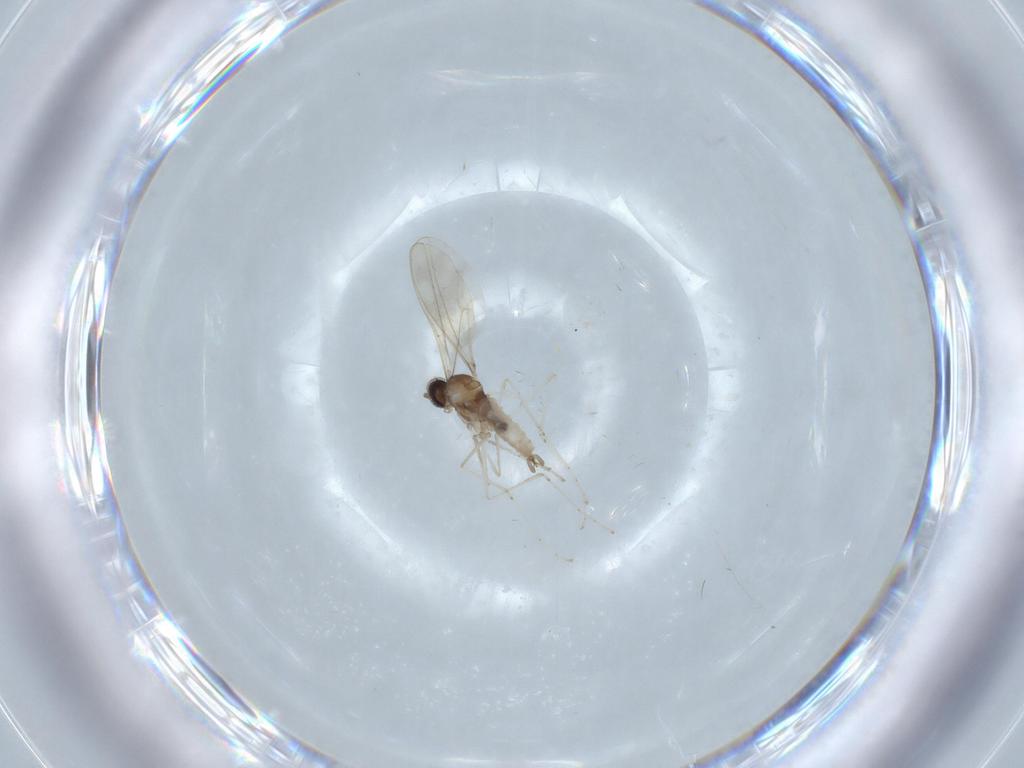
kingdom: Animalia
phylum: Arthropoda
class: Insecta
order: Diptera
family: Cecidomyiidae
